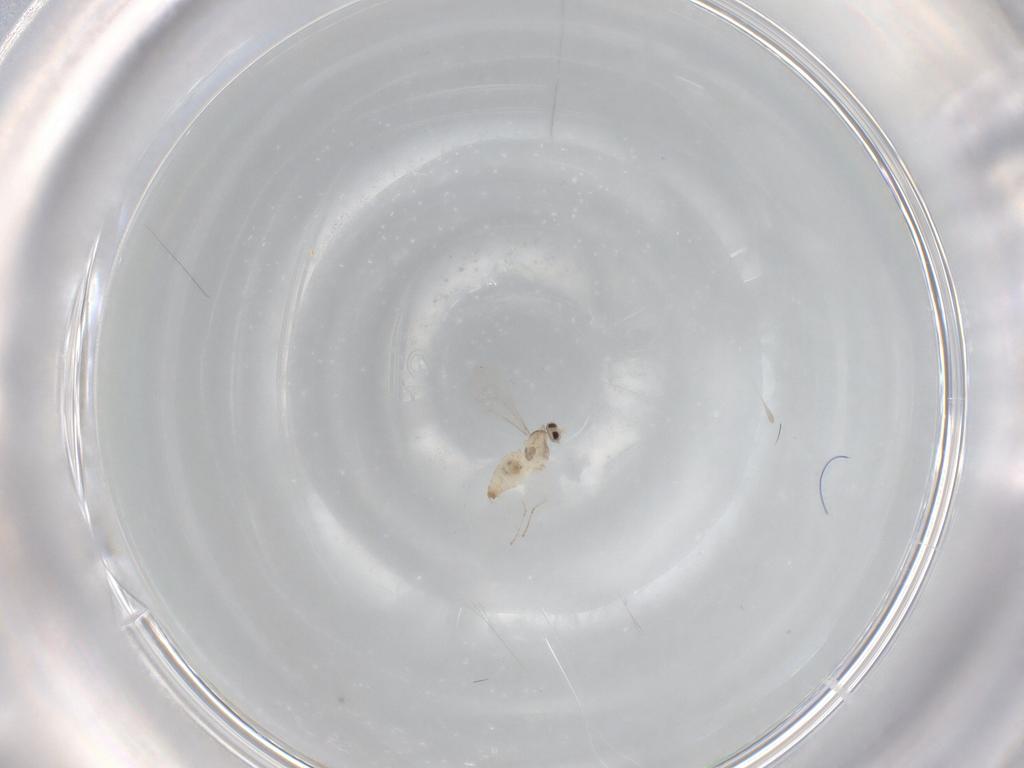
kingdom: Animalia
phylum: Arthropoda
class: Insecta
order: Diptera
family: Cecidomyiidae
